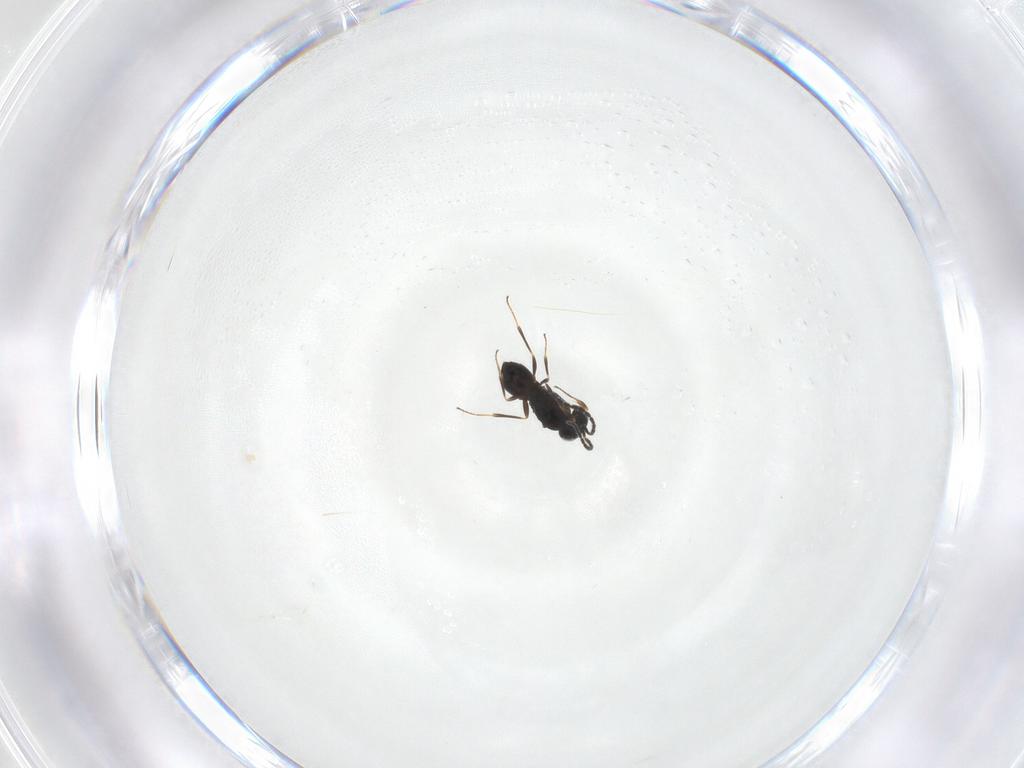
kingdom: Animalia
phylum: Arthropoda
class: Insecta
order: Hymenoptera
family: Scelionidae
